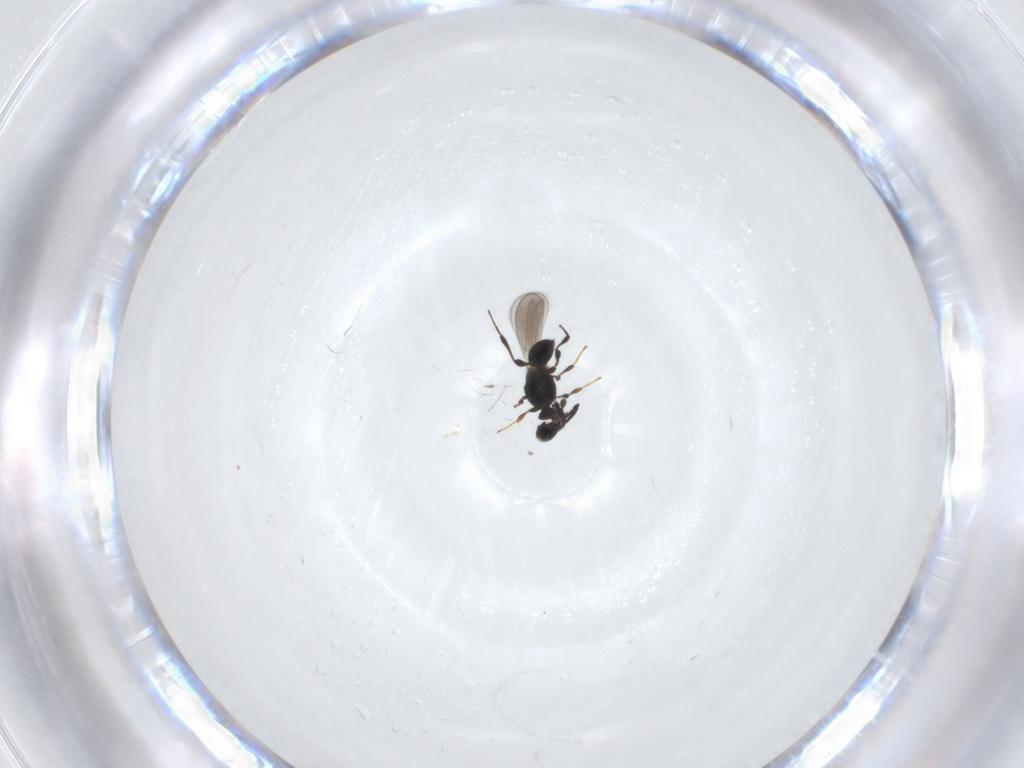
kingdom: Animalia
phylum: Arthropoda
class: Insecta
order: Hymenoptera
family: Platygastridae
